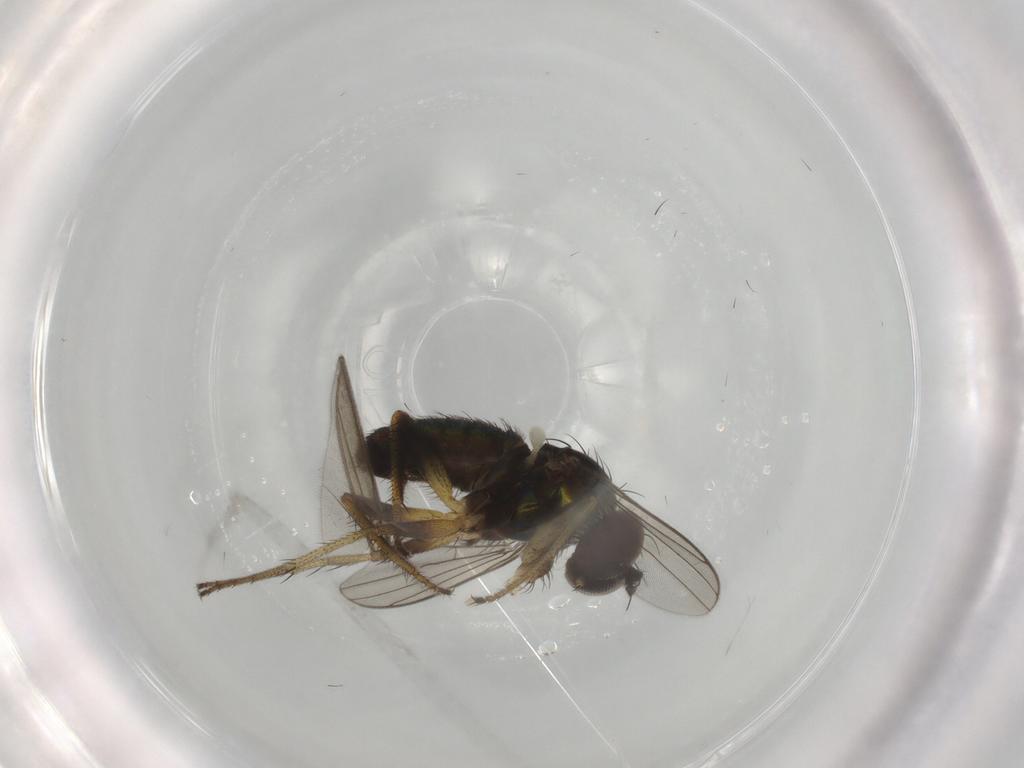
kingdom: Animalia
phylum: Arthropoda
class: Insecta
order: Diptera
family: Dolichopodidae
